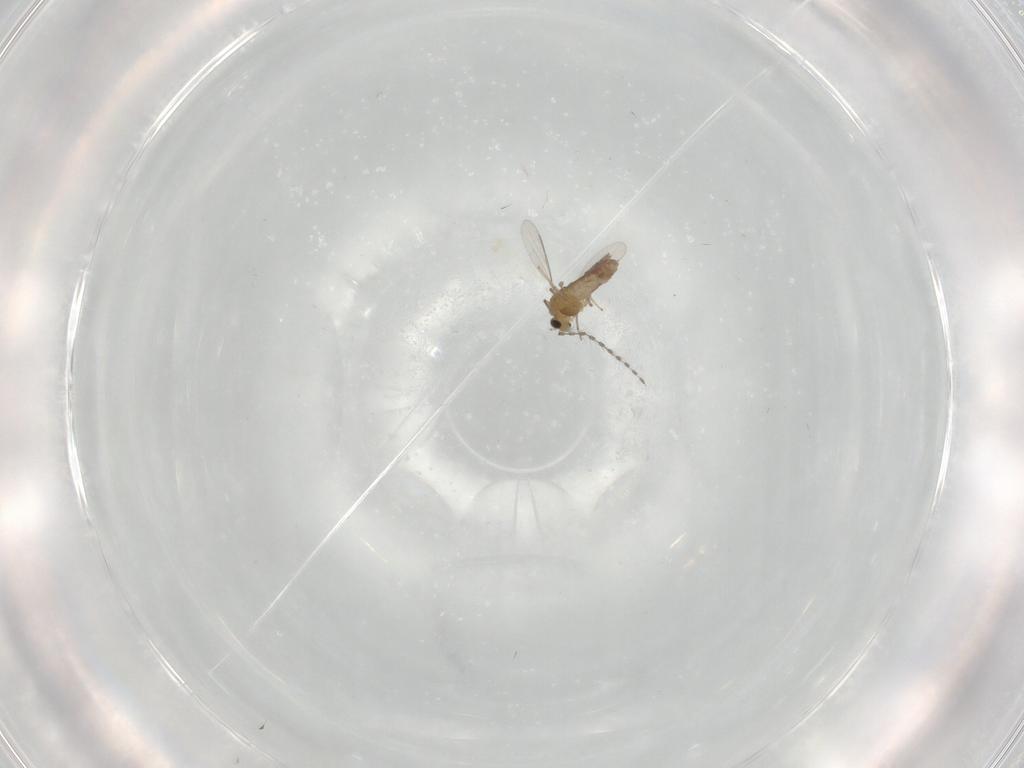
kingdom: Animalia
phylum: Arthropoda
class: Insecta
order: Diptera
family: Cecidomyiidae
